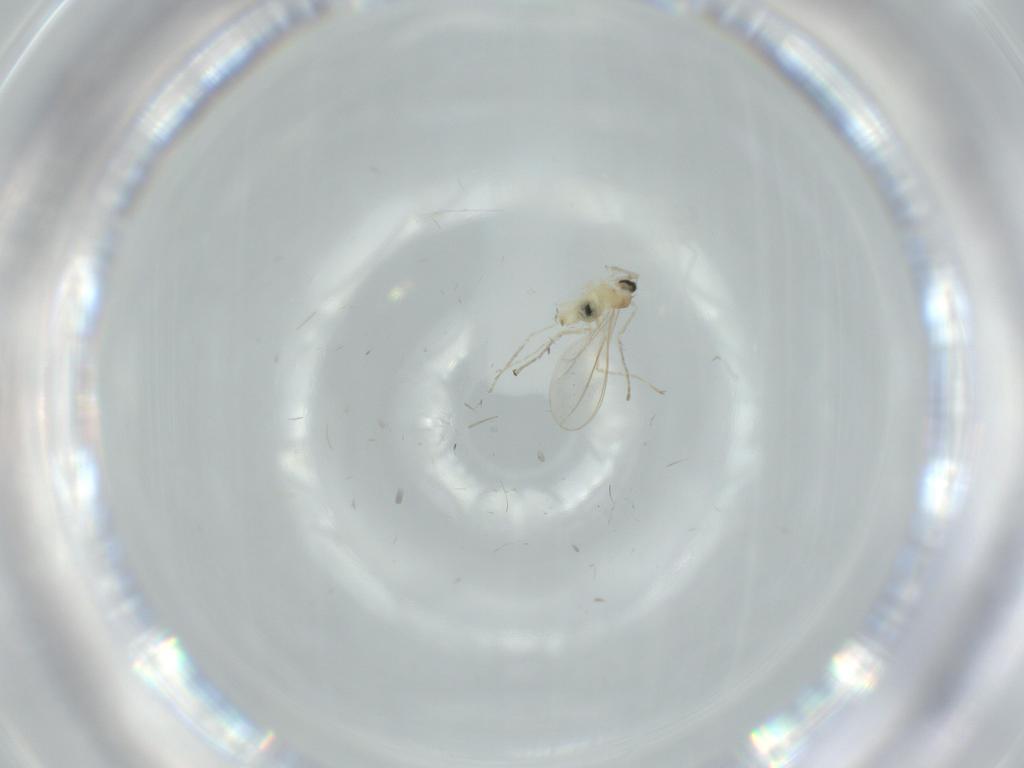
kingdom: Animalia
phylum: Arthropoda
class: Insecta
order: Diptera
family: Cecidomyiidae
